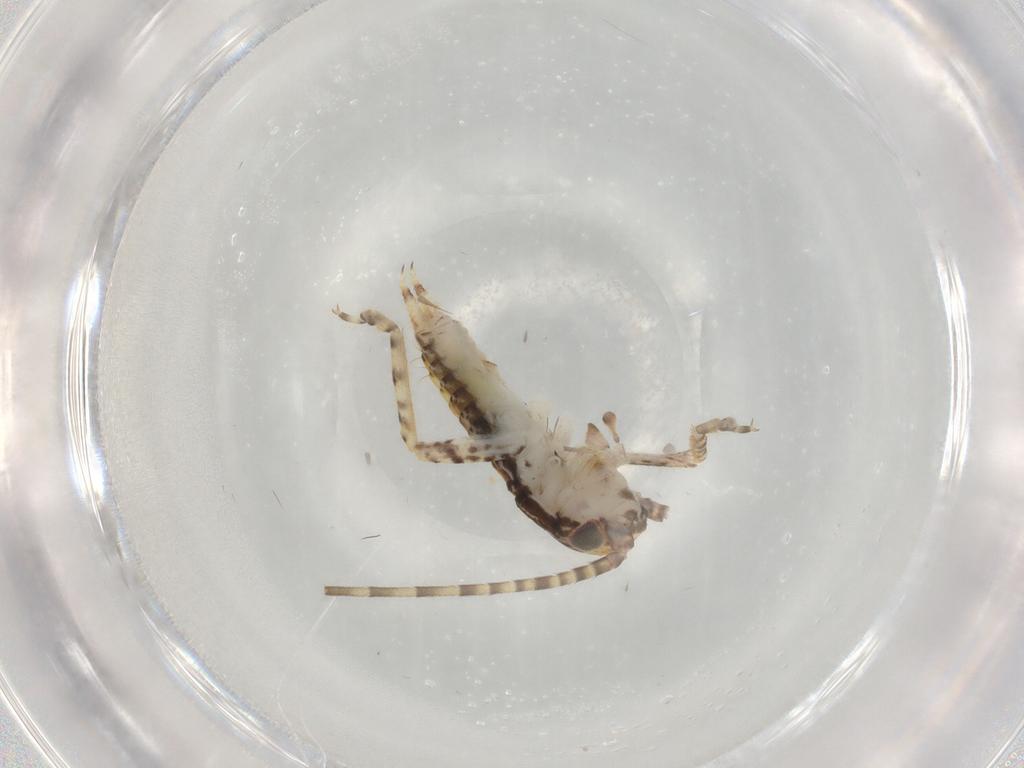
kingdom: Animalia
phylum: Arthropoda
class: Insecta
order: Orthoptera
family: Gryllidae
